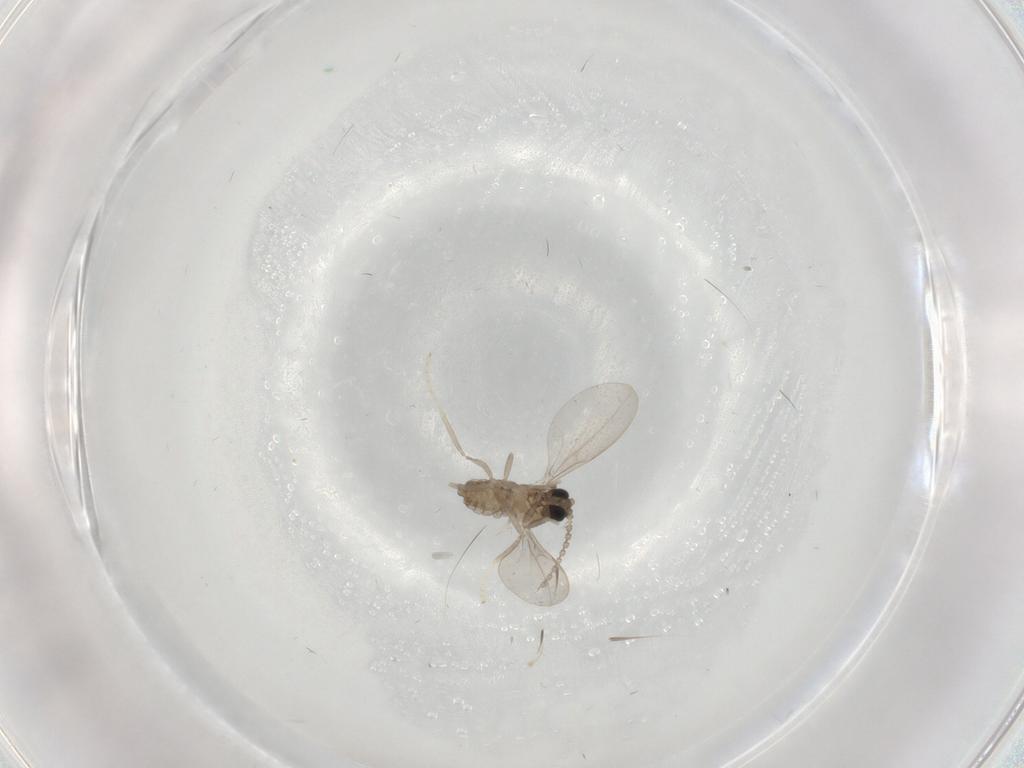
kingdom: Animalia
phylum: Arthropoda
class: Insecta
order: Diptera
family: Cecidomyiidae
